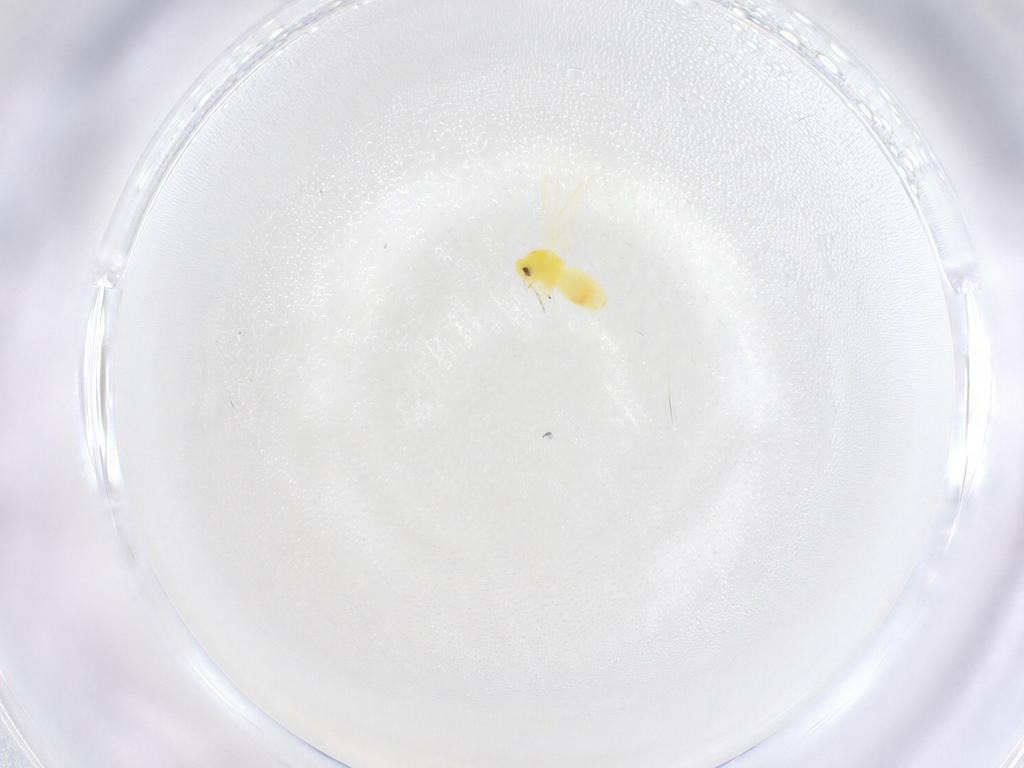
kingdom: Animalia
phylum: Arthropoda
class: Insecta
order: Hemiptera
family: Aleyrodidae
